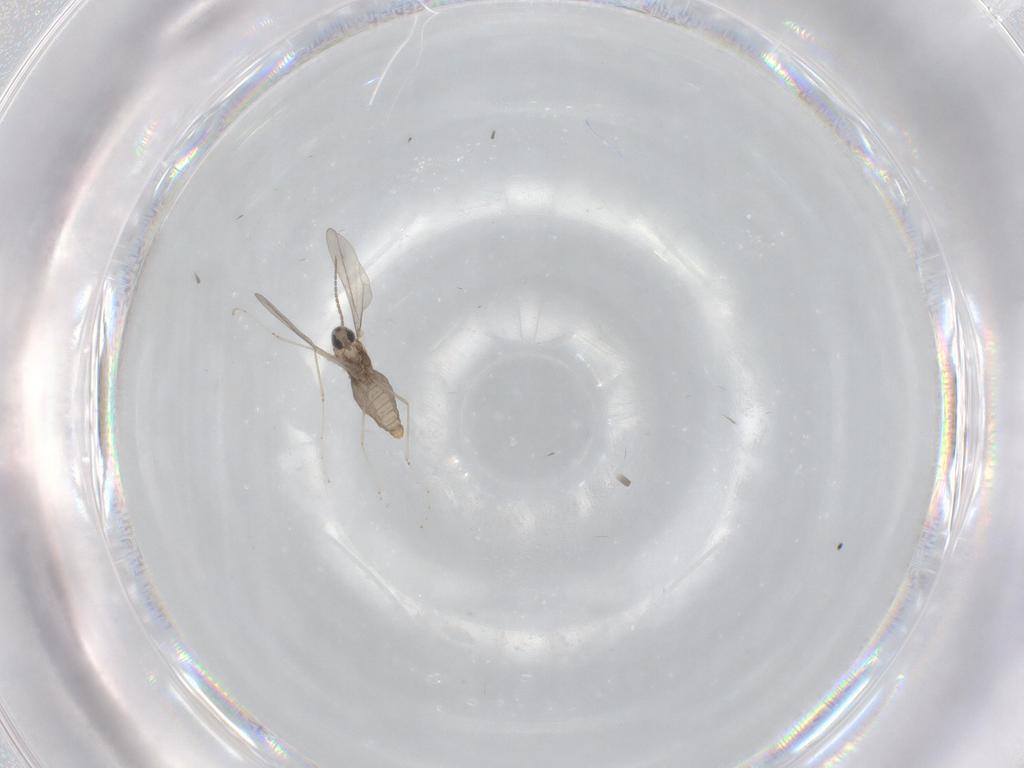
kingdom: Animalia
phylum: Arthropoda
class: Insecta
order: Diptera
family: Cecidomyiidae
